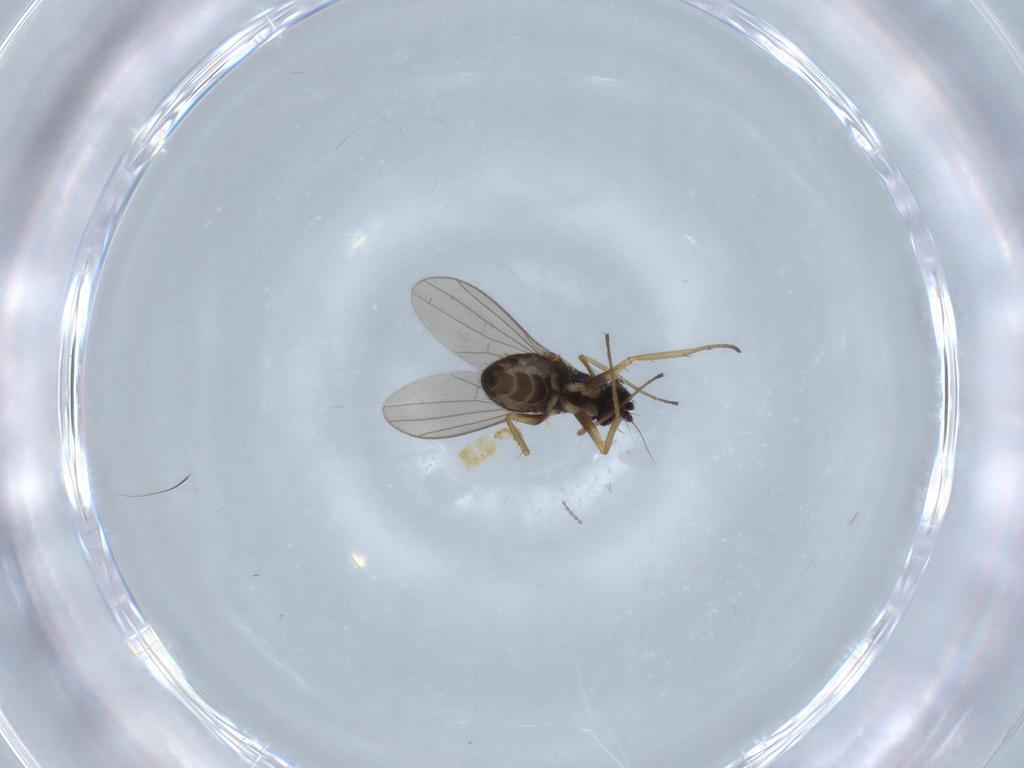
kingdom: Animalia
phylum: Arthropoda
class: Insecta
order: Diptera
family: Dolichopodidae
